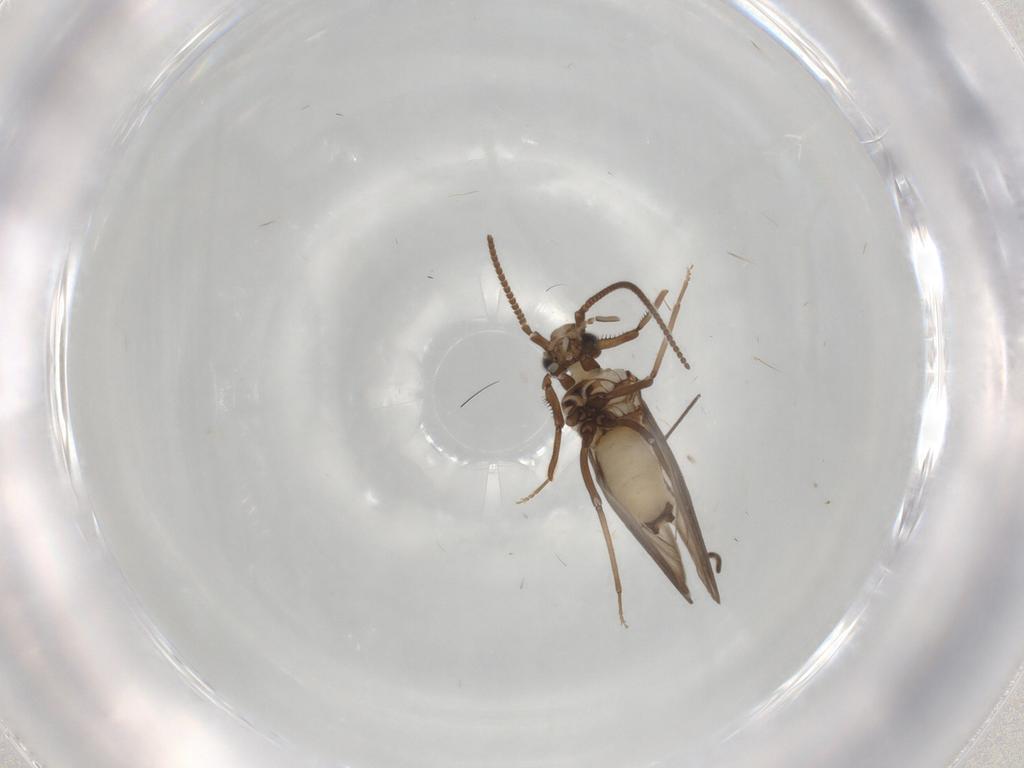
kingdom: Animalia
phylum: Arthropoda
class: Insecta
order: Neuroptera
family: Coniopterygidae
